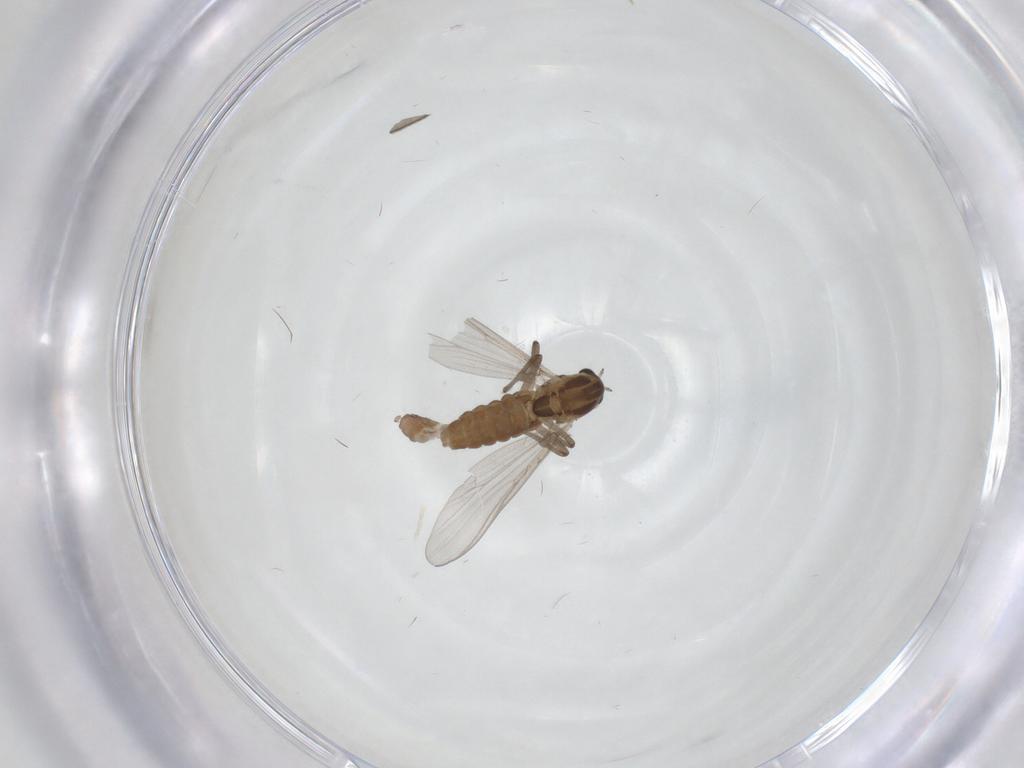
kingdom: Animalia
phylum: Arthropoda
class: Insecta
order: Diptera
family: Chironomidae
